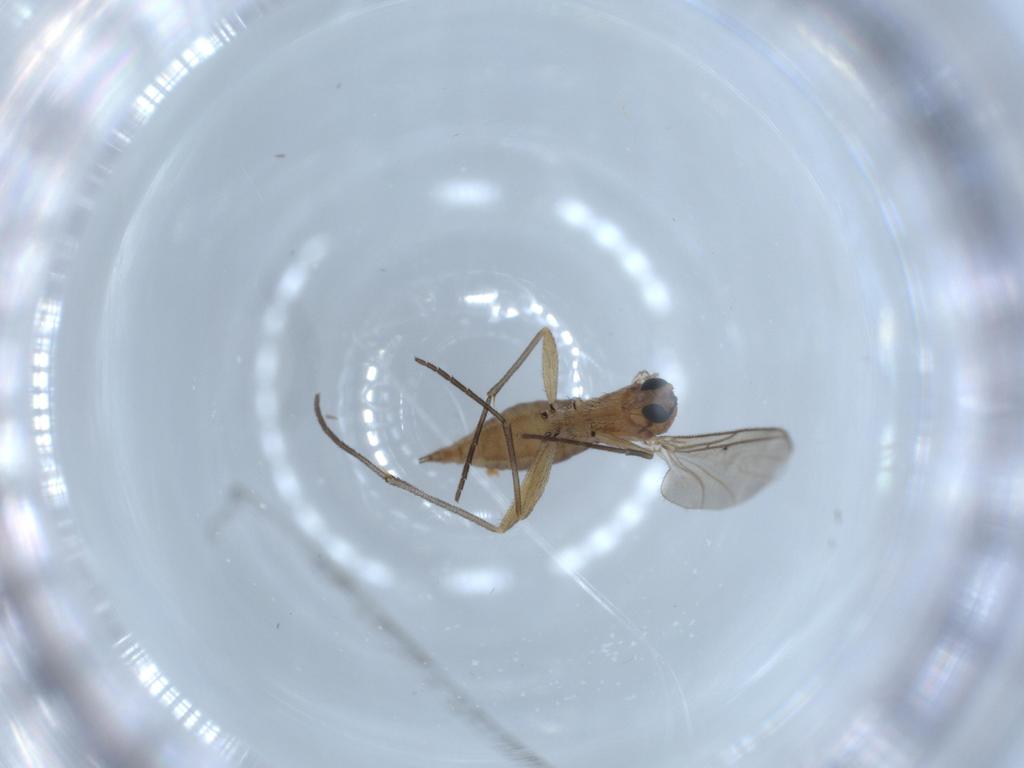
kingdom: Animalia
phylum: Arthropoda
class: Insecta
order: Diptera
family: Sciaridae
